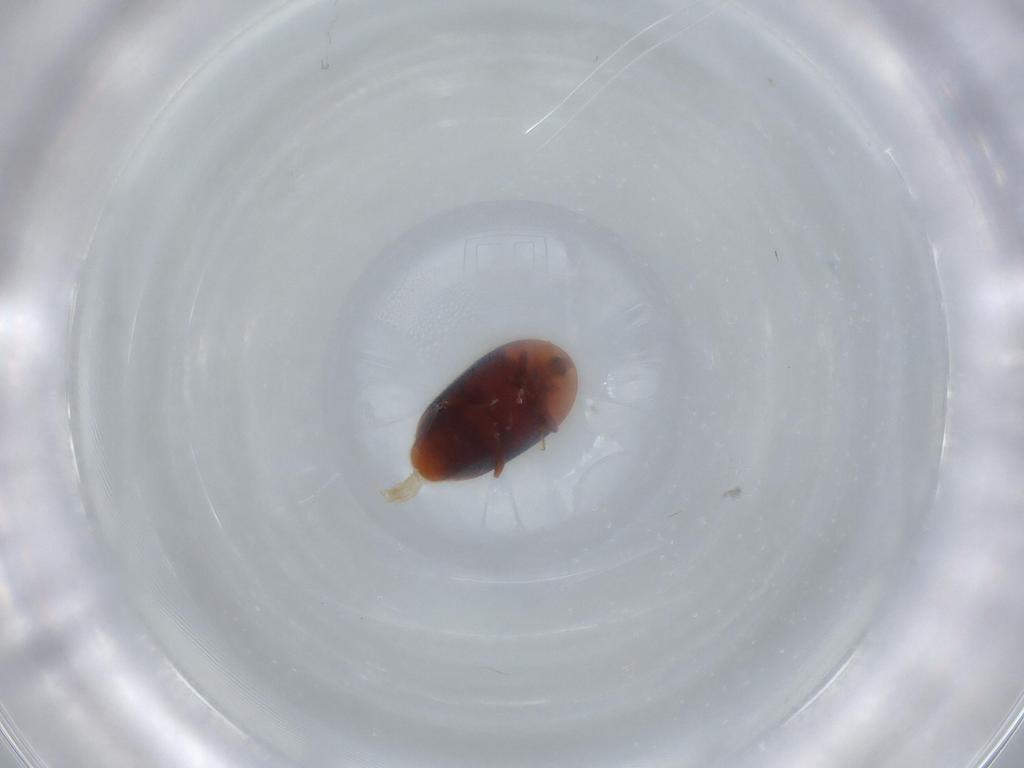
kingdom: Animalia
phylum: Arthropoda
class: Insecta
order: Coleoptera
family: Corylophidae
